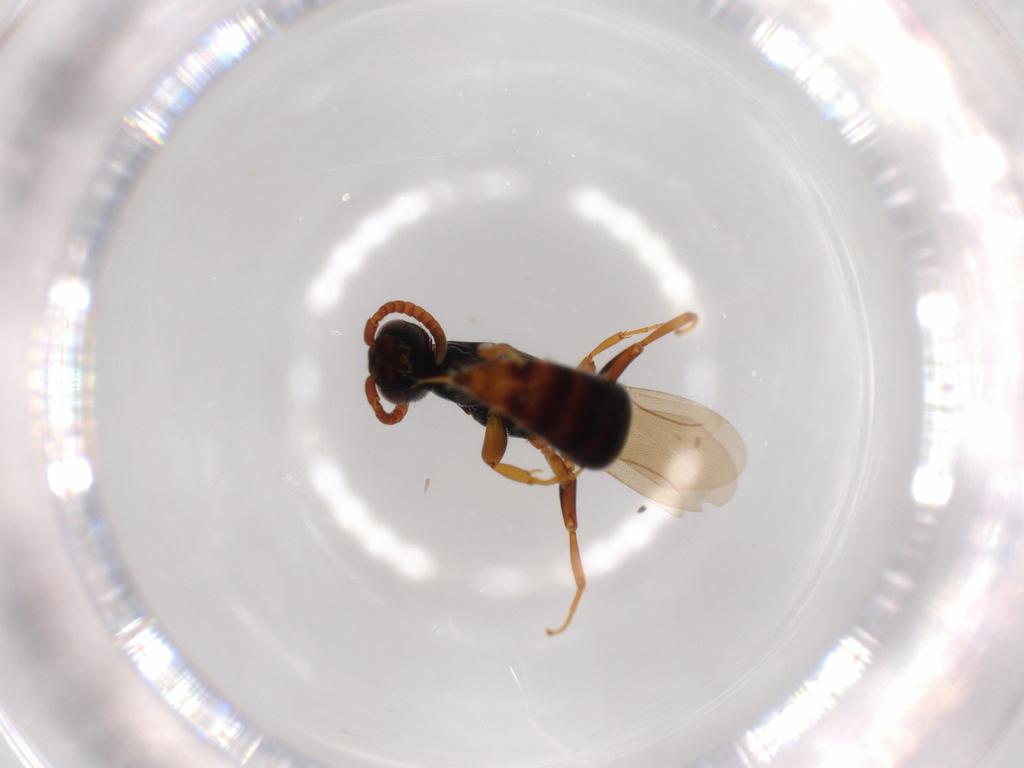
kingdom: Animalia
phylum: Arthropoda
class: Insecta
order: Hymenoptera
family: Bethylidae
